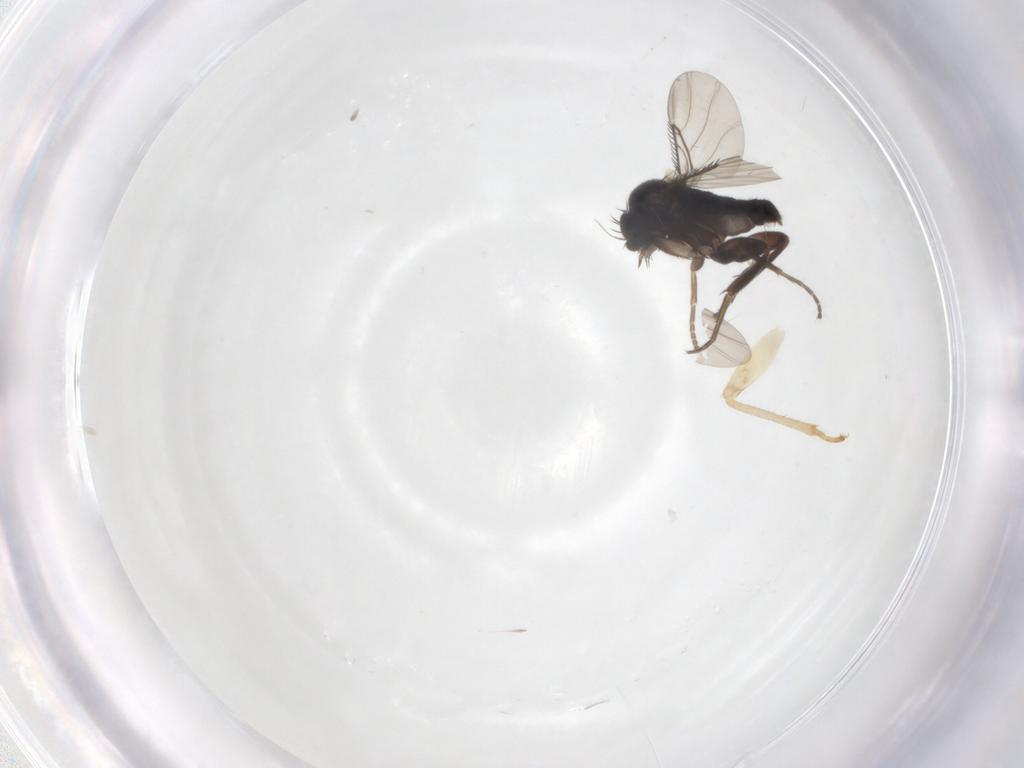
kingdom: Animalia
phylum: Arthropoda
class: Insecta
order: Diptera
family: Phoridae
